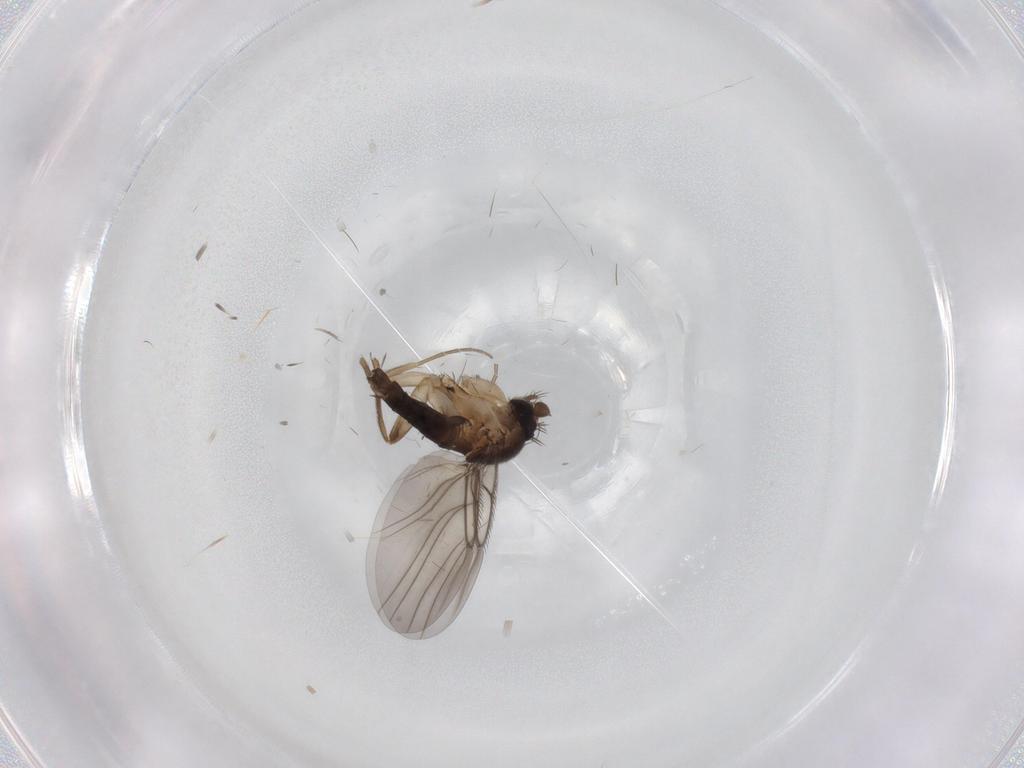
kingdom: Animalia
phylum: Arthropoda
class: Insecta
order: Diptera
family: Phoridae
